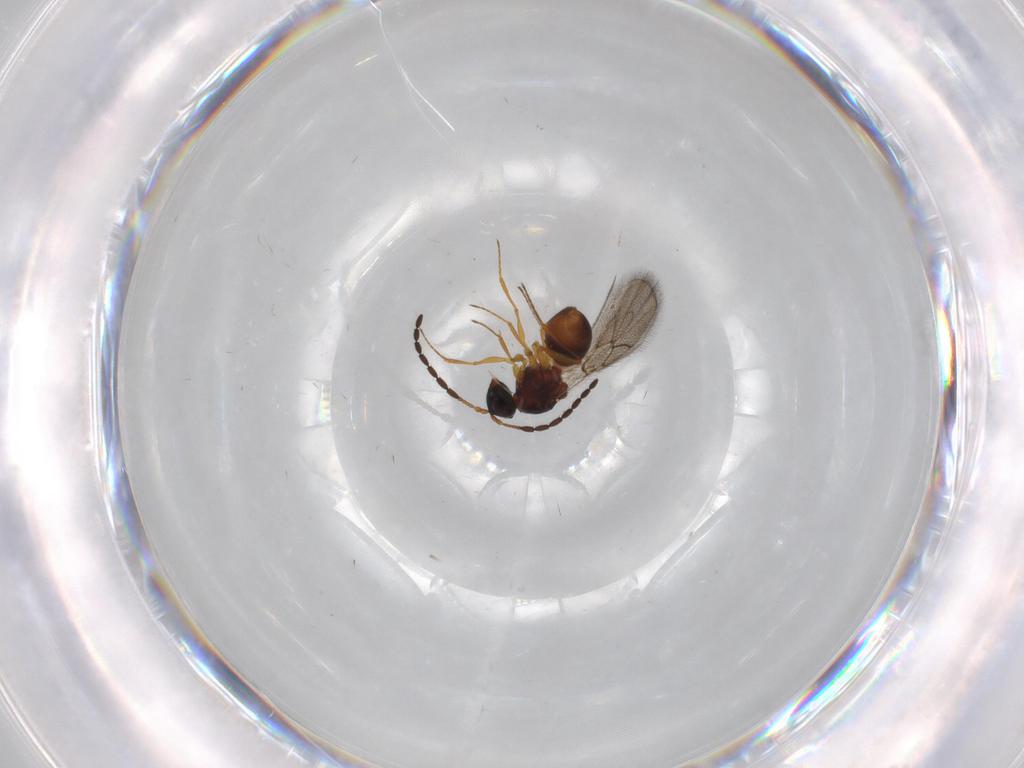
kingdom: Animalia
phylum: Arthropoda
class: Insecta
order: Hymenoptera
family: Figitidae
